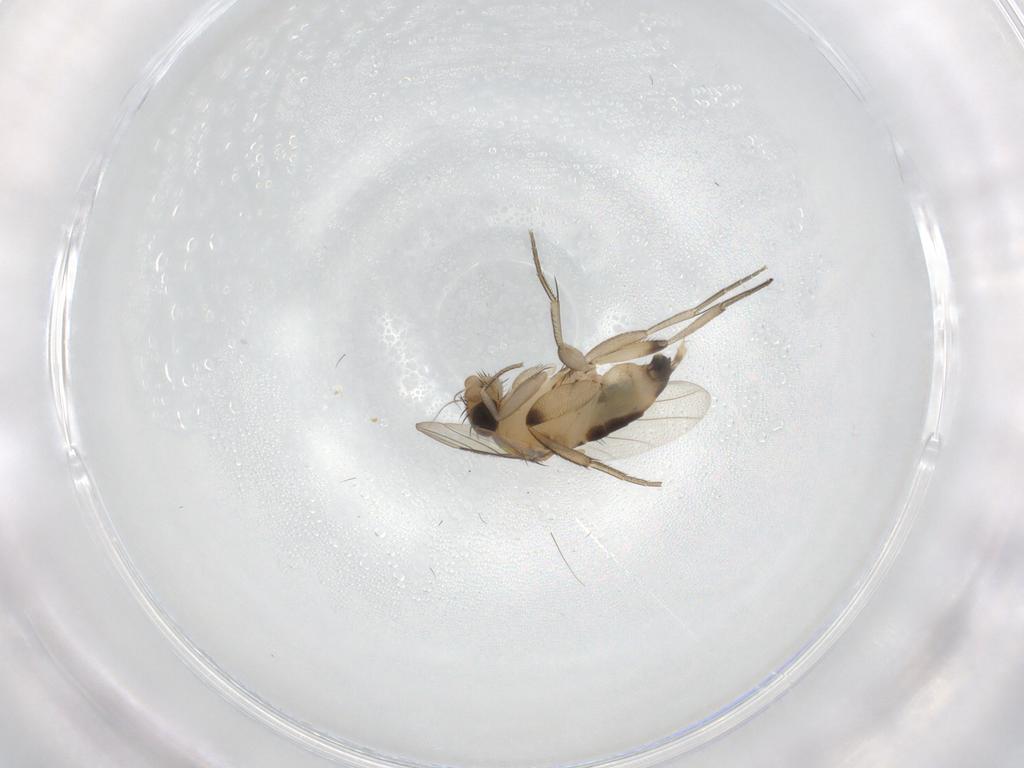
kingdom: Animalia
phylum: Arthropoda
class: Insecta
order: Diptera
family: Phoridae
